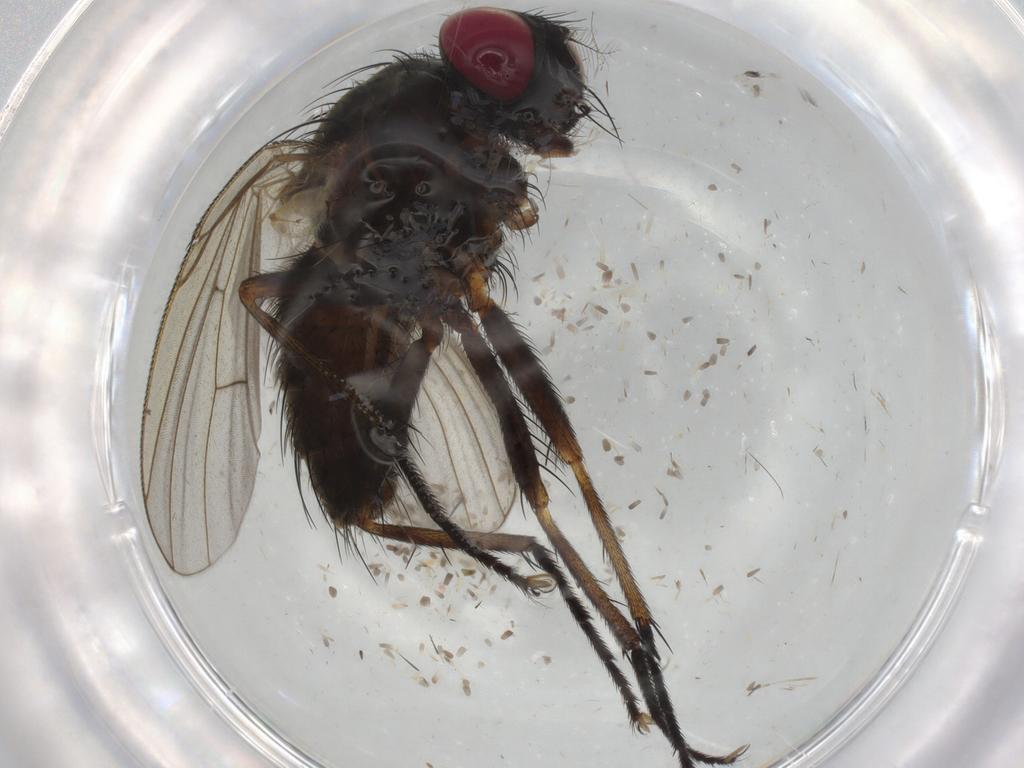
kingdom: Animalia
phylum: Arthropoda
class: Insecta
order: Diptera
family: Muscidae
